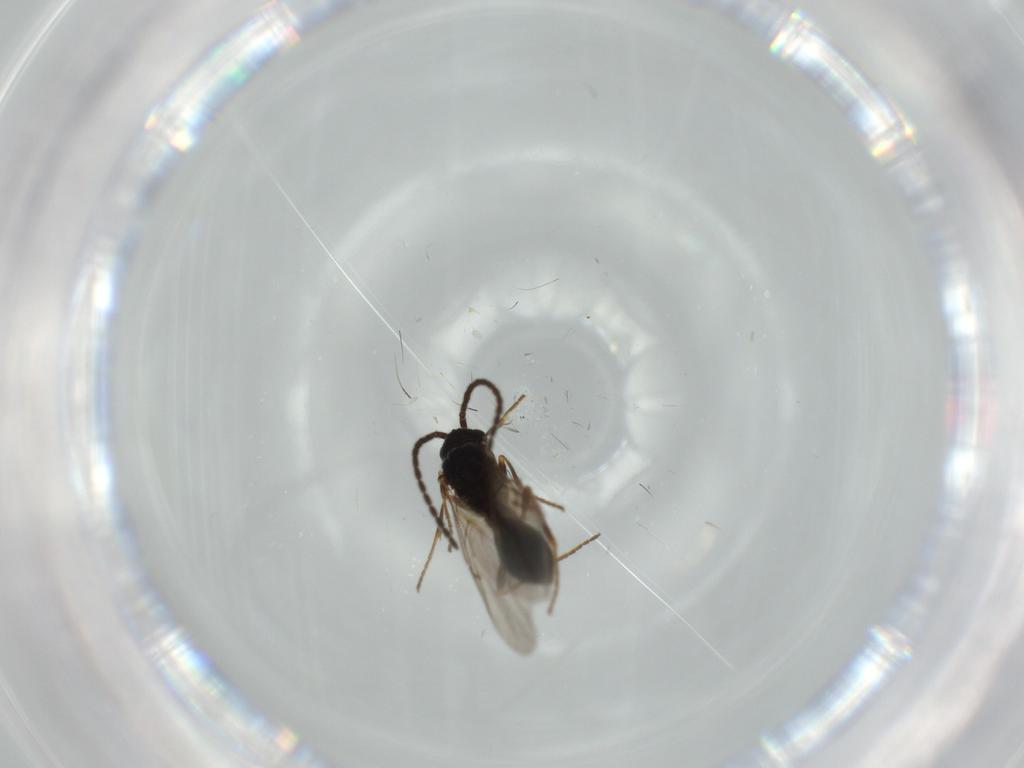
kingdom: Animalia
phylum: Arthropoda
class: Insecta
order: Hymenoptera
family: Diapriidae
